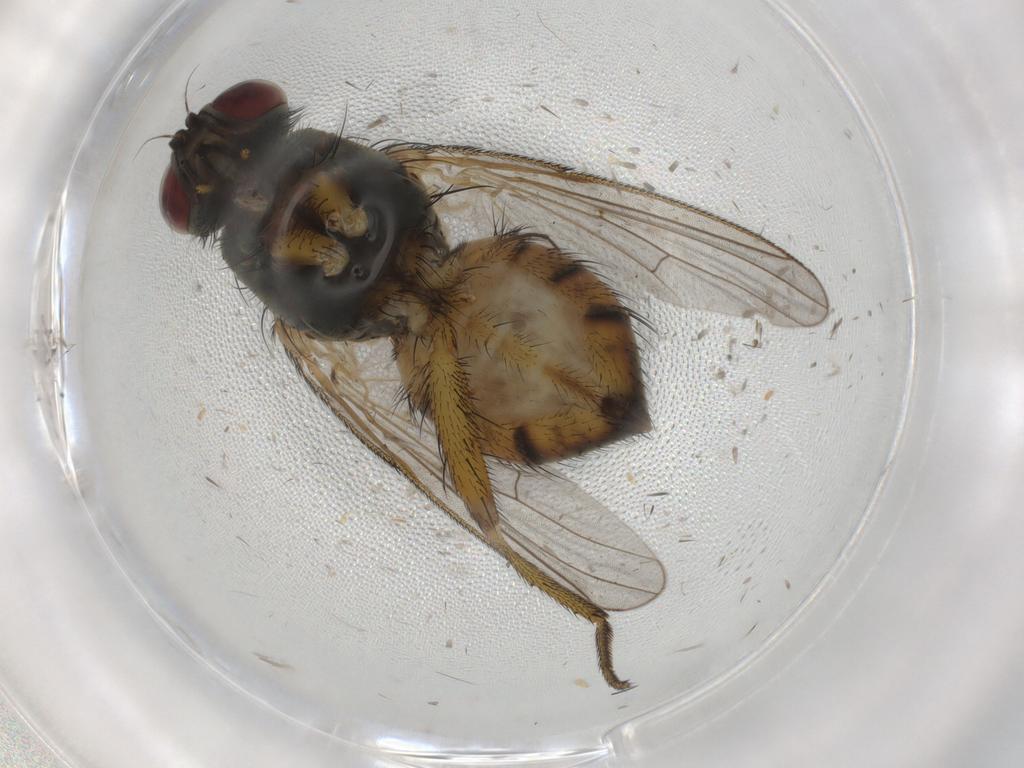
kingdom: Animalia
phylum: Arthropoda
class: Insecta
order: Diptera
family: Muscidae
